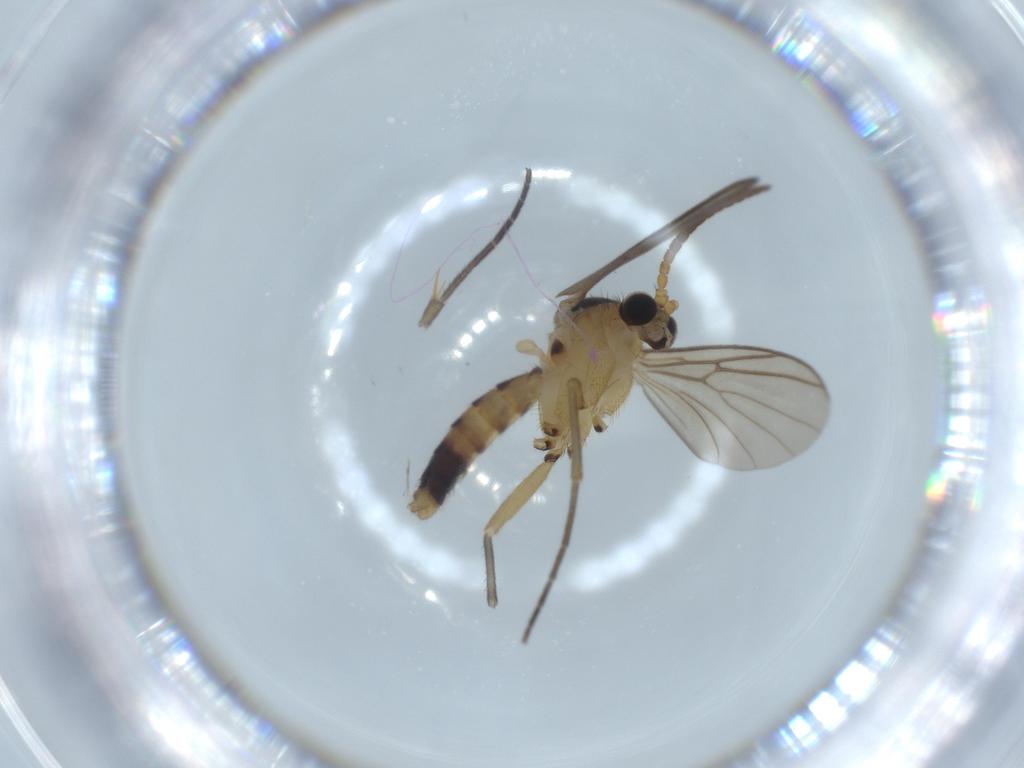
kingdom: Animalia
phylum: Arthropoda
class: Insecta
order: Diptera
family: Mycetophilidae
